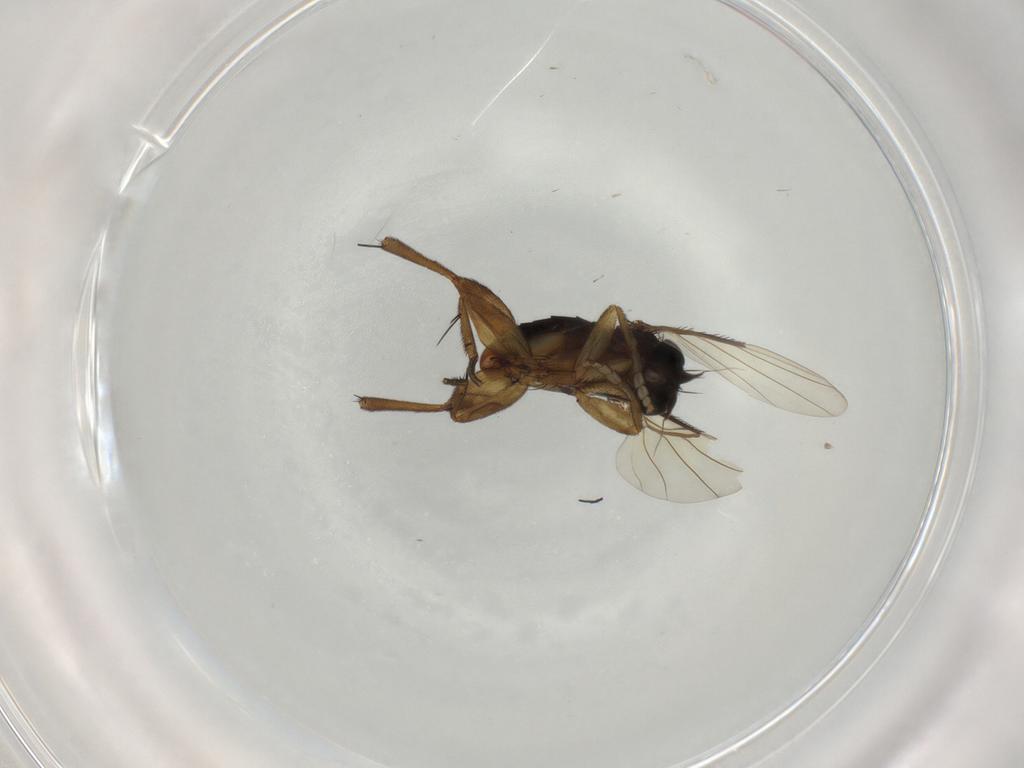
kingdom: Animalia
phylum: Arthropoda
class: Insecta
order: Diptera
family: Phoridae
